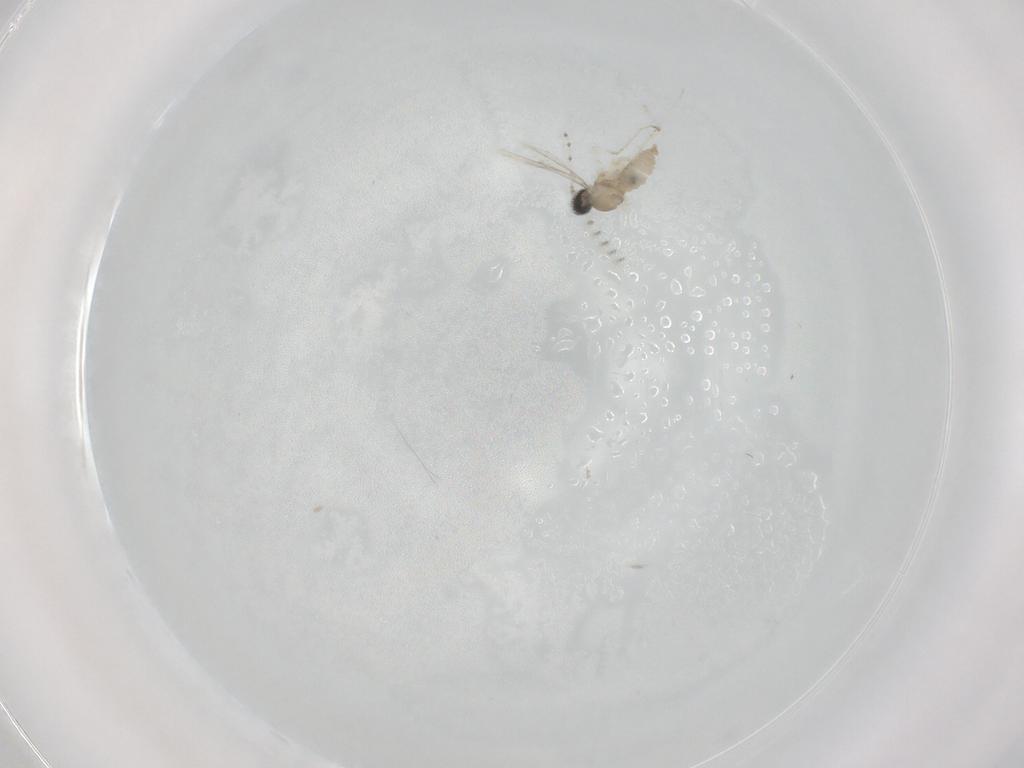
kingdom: Animalia
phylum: Arthropoda
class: Insecta
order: Diptera
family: Cecidomyiidae
